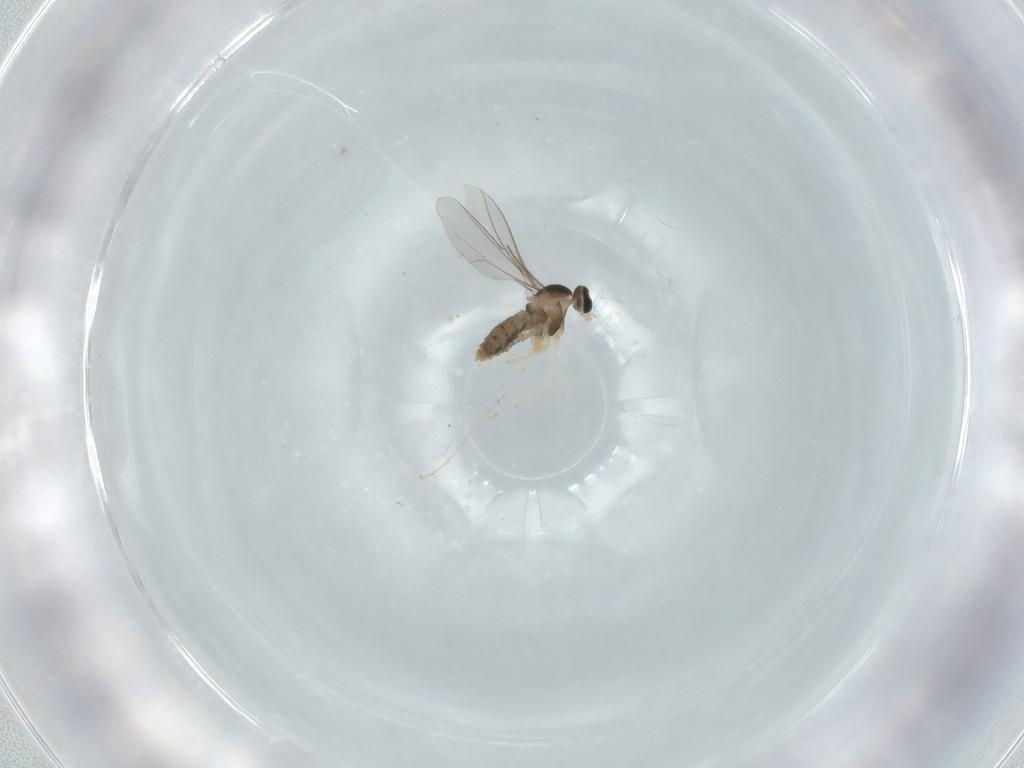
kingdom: Animalia
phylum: Arthropoda
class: Insecta
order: Diptera
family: Cecidomyiidae
